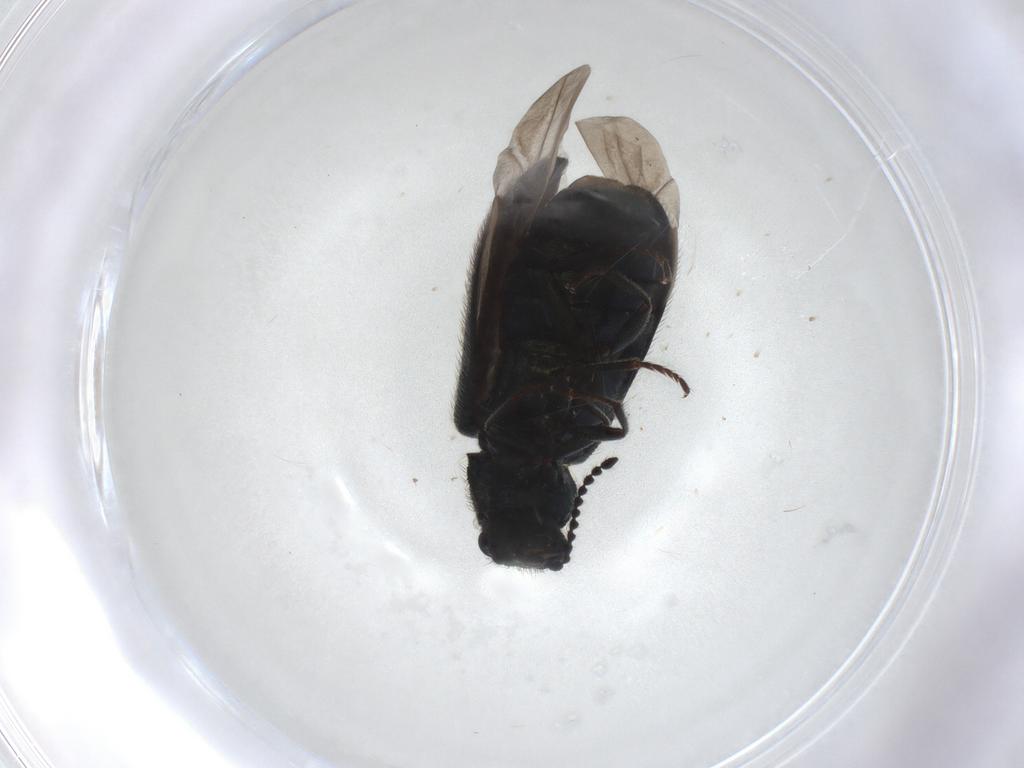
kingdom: Animalia
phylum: Arthropoda
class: Insecta
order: Coleoptera
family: Melyridae
